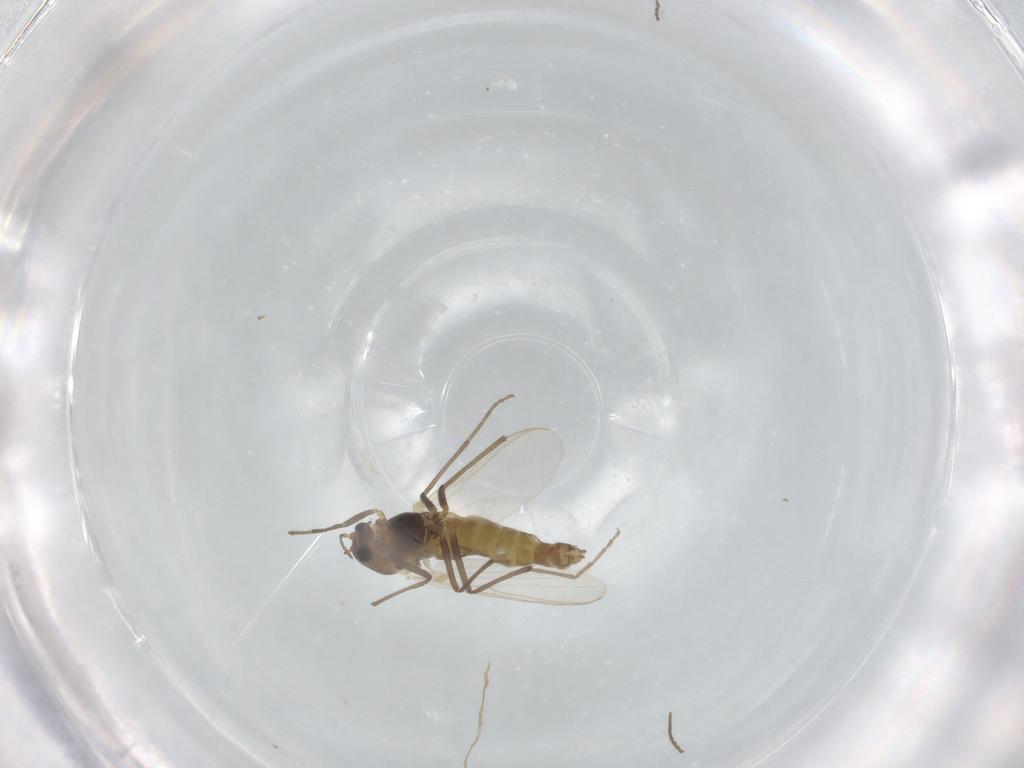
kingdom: Animalia
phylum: Arthropoda
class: Insecta
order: Diptera
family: Chironomidae
